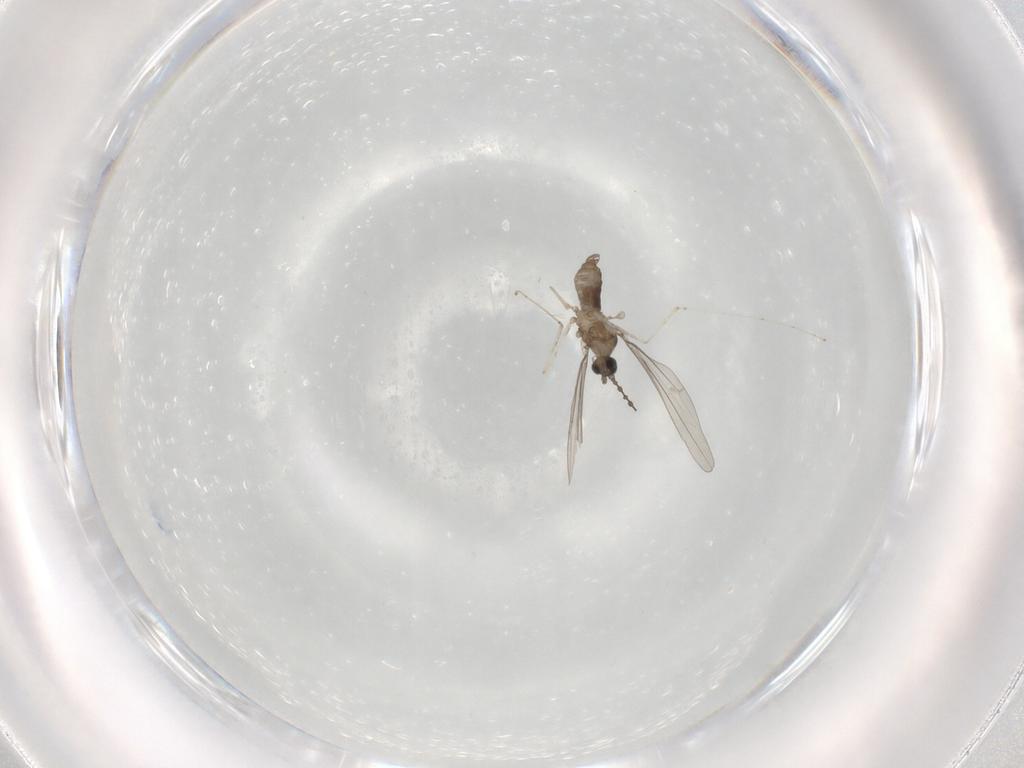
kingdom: Animalia
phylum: Arthropoda
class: Insecta
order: Diptera
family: Cecidomyiidae
